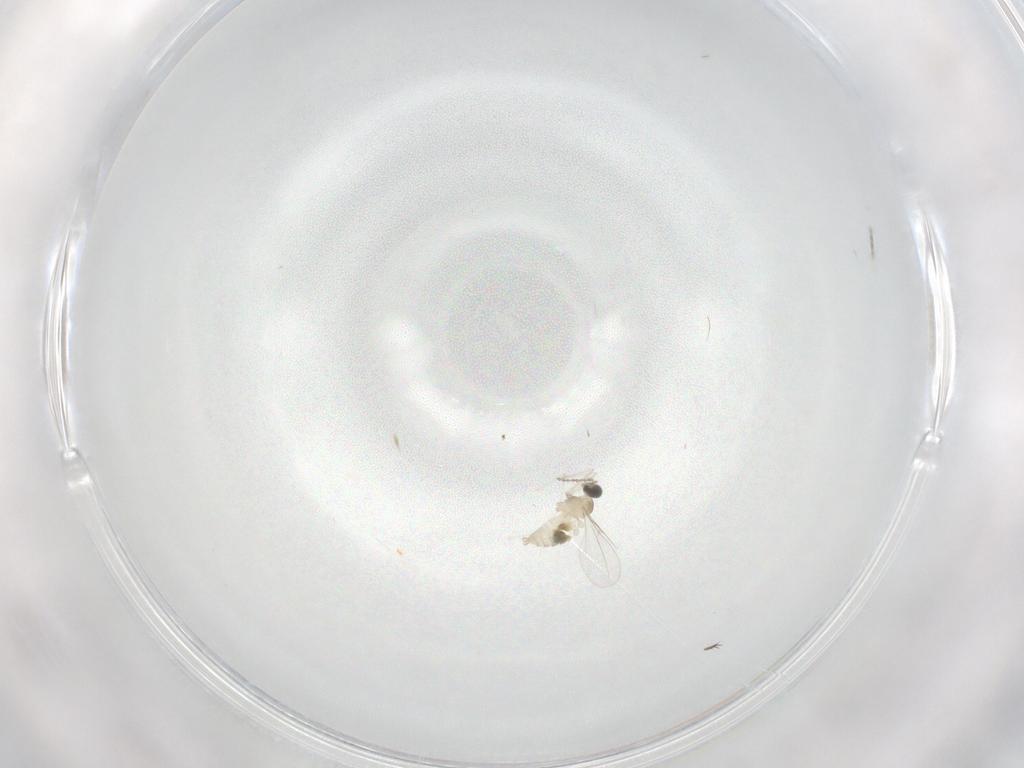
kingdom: Animalia
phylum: Arthropoda
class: Insecta
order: Diptera
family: Cecidomyiidae
